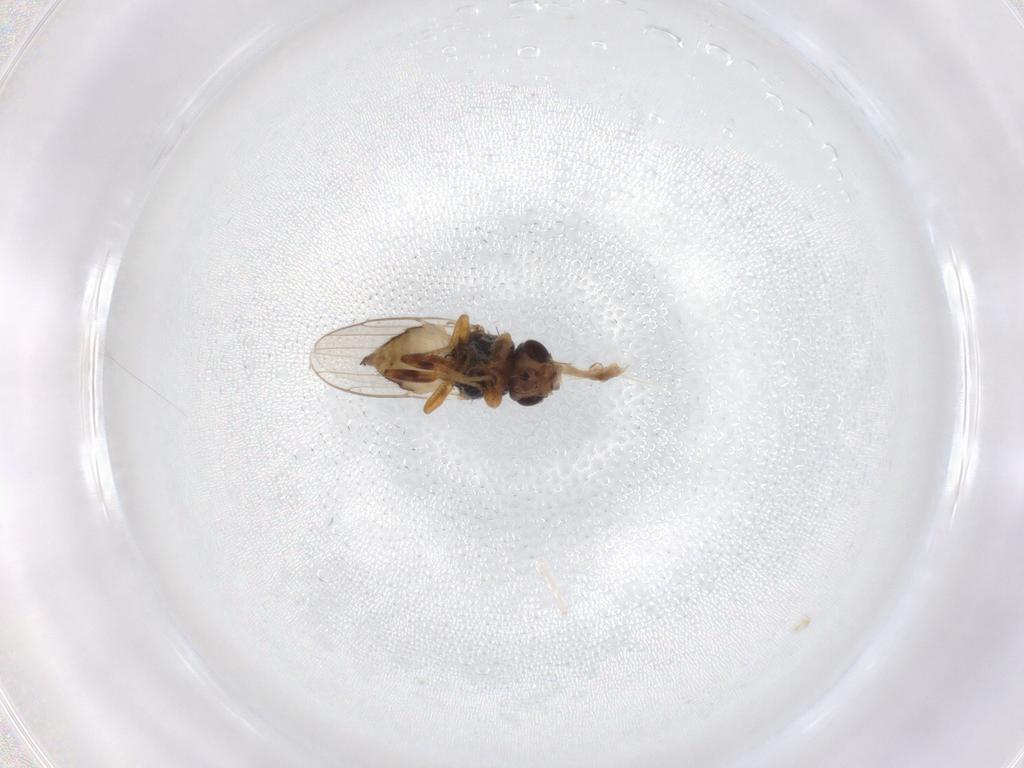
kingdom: Animalia
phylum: Arthropoda
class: Insecta
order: Diptera
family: Chloropidae
